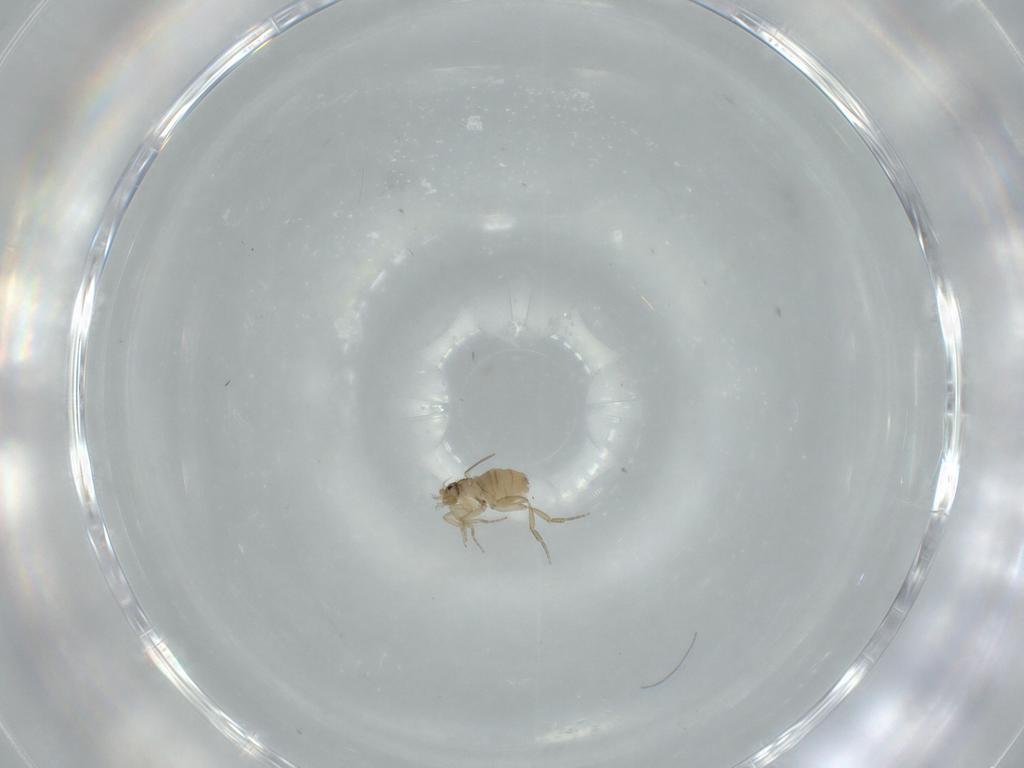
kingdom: Animalia
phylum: Arthropoda
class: Insecta
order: Diptera
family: Phoridae
